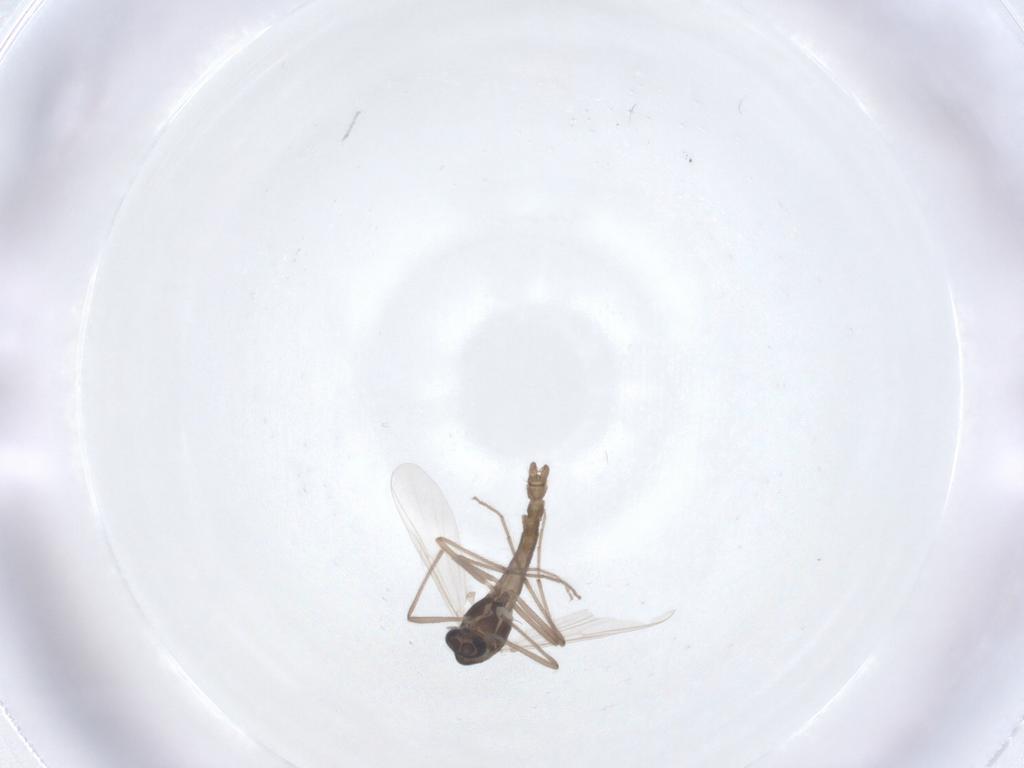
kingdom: Animalia
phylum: Arthropoda
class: Insecta
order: Diptera
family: Chironomidae
